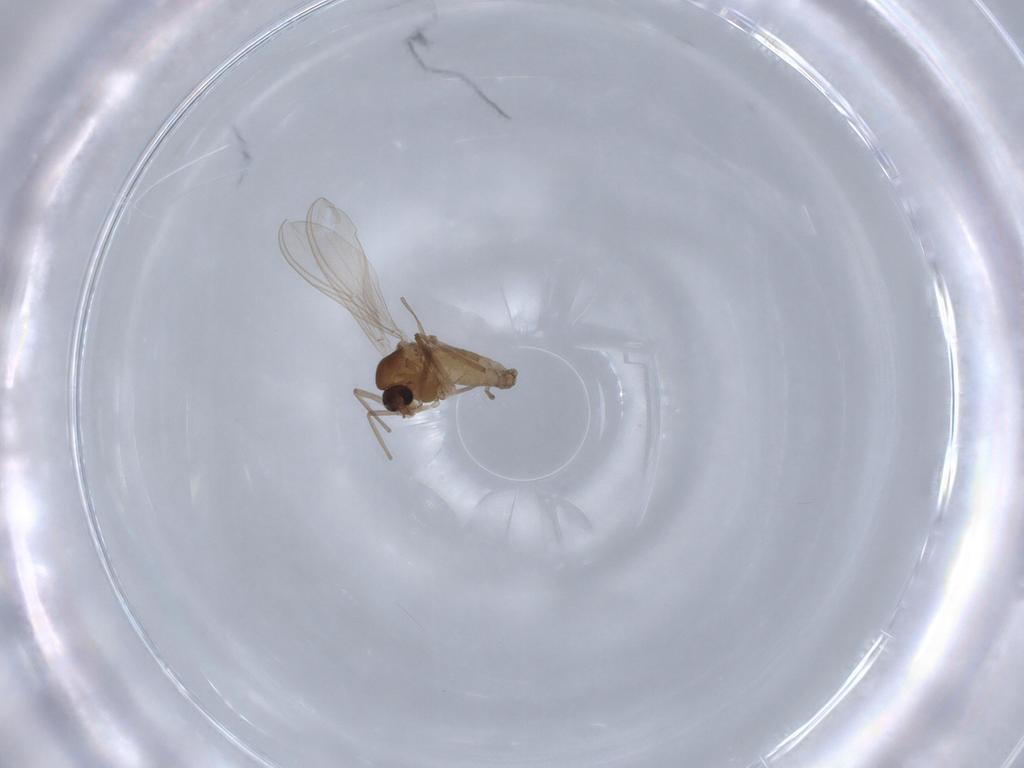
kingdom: Animalia
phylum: Arthropoda
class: Insecta
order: Diptera
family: Chironomidae
